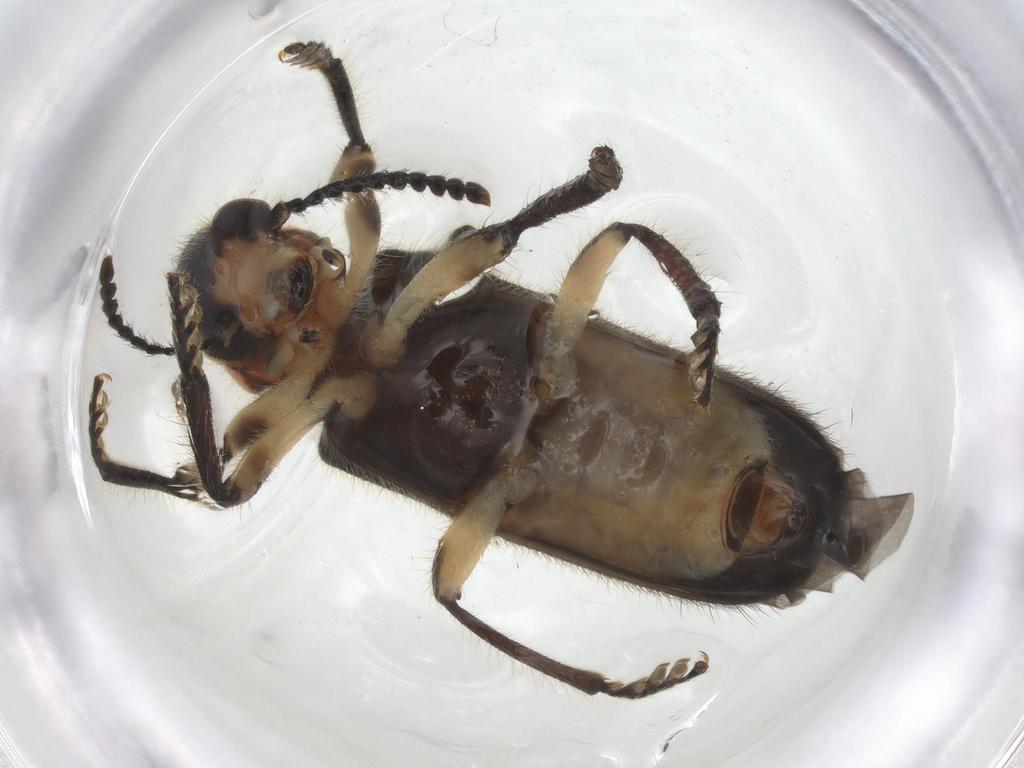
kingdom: Animalia
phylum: Arthropoda
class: Insecta
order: Coleoptera
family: Cleridae
